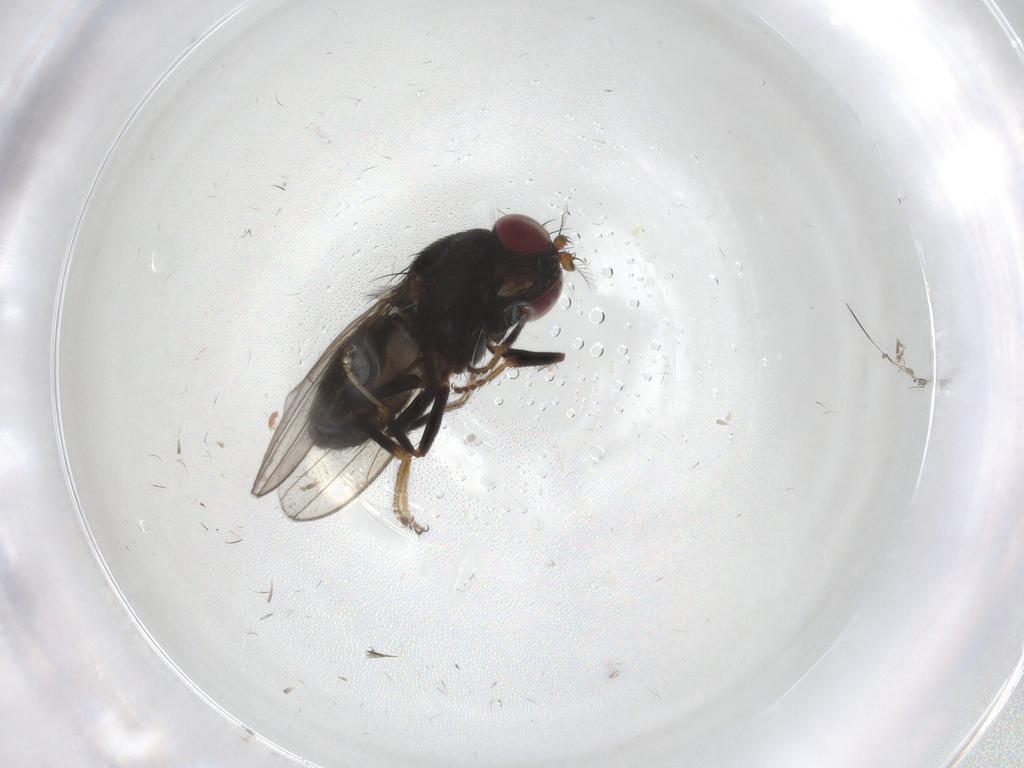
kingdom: Animalia
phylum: Arthropoda
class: Insecta
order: Diptera
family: Ephydridae
